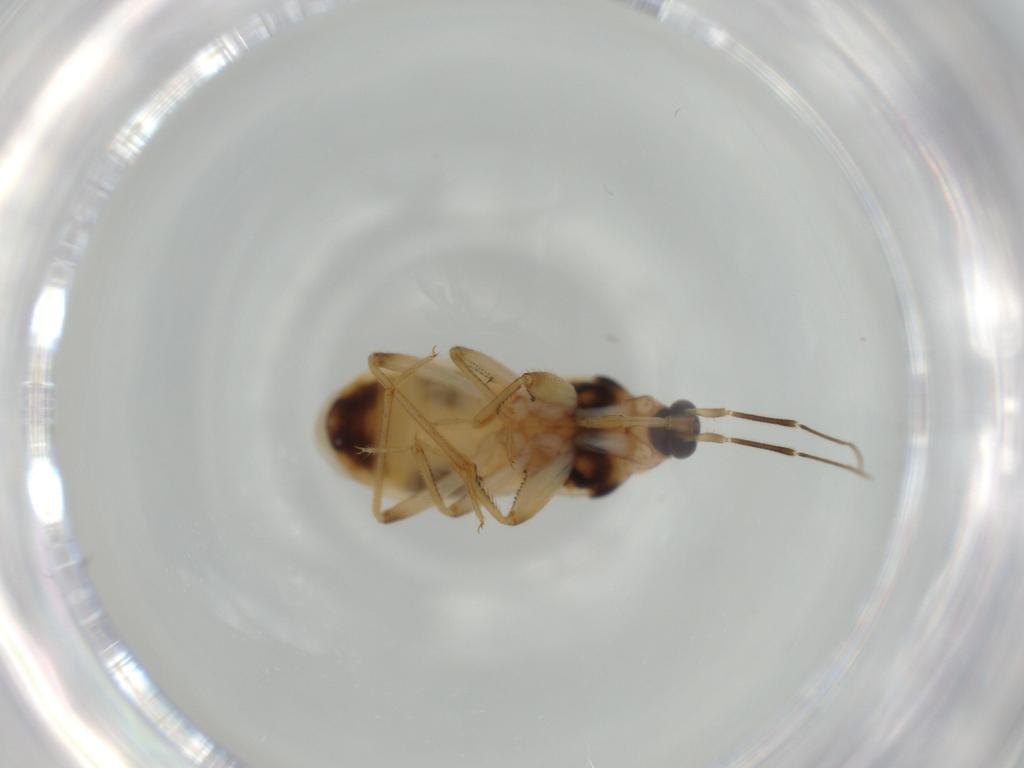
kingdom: Animalia
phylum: Arthropoda
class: Insecta
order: Hemiptera
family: Nabidae
